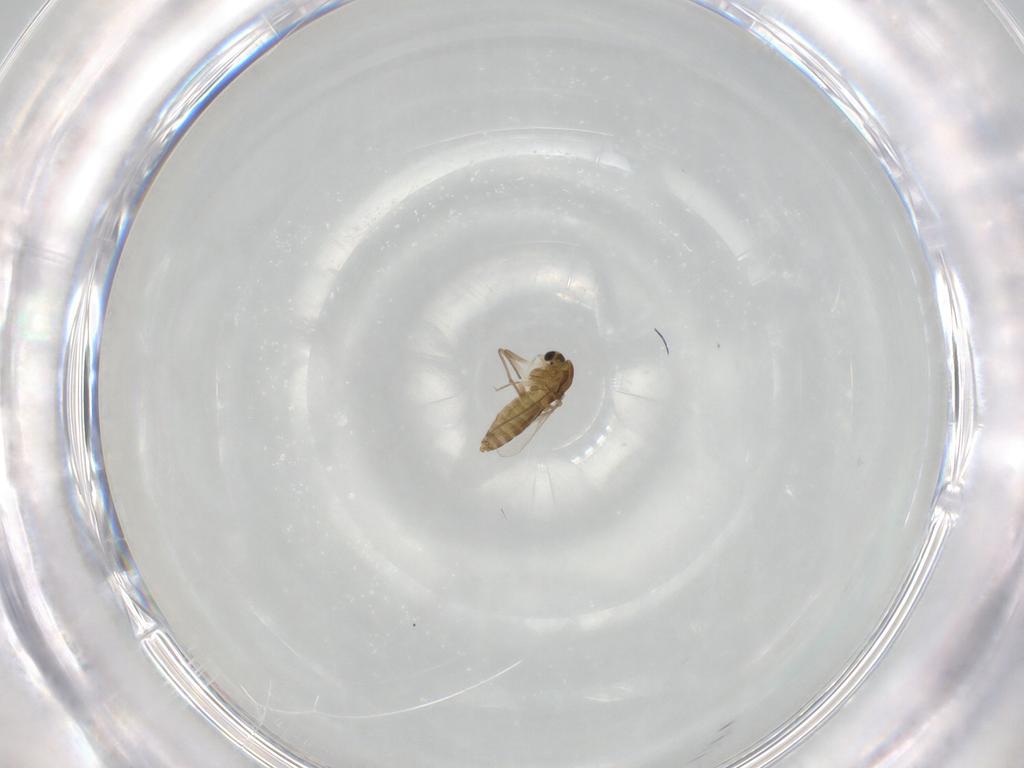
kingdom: Animalia
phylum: Arthropoda
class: Insecta
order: Diptera
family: Chironomidae
